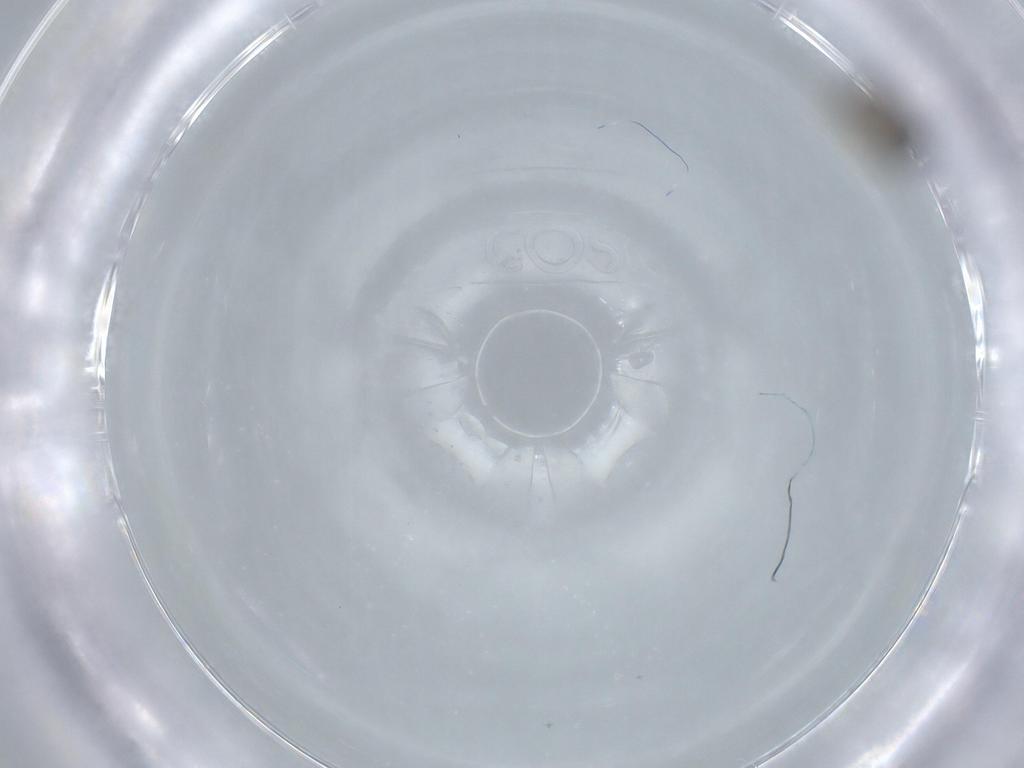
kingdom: Animalia
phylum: Arthropoda
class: Insecta
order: Hymenoptera
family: Scelionidae
